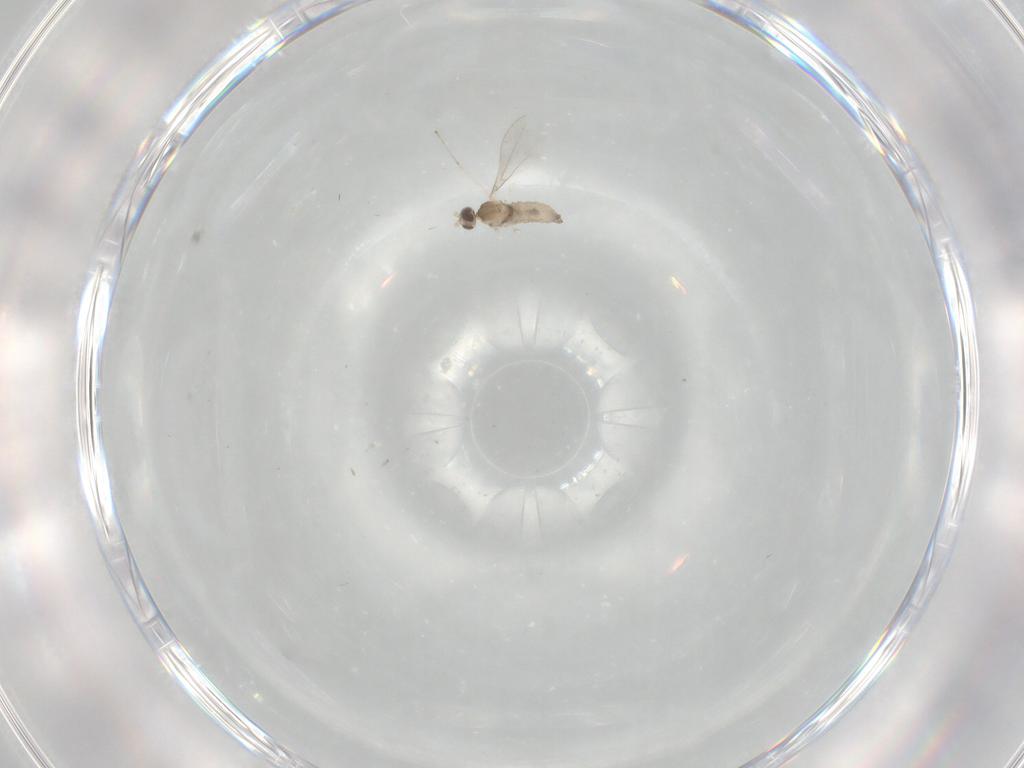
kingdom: Animalia
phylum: Arthropoda
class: Insecta
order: Diptera
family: Cecidomyiidae
